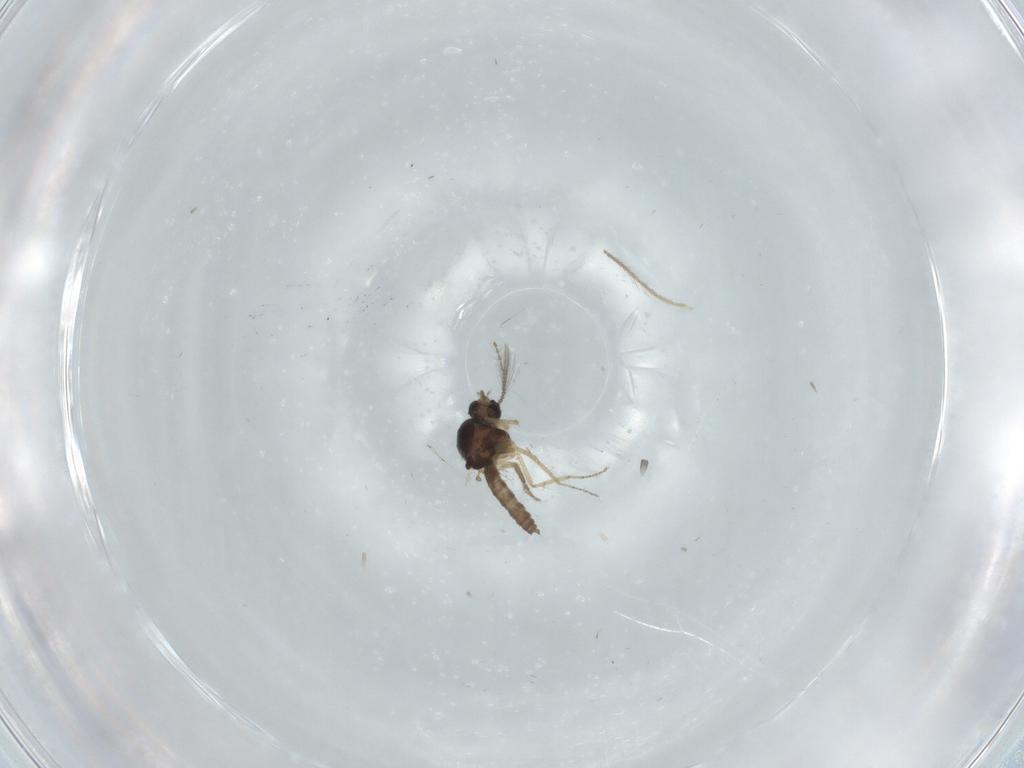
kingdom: Animalia
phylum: Arthropoda
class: Insecta
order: Diptera
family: Ceratopogonidae
